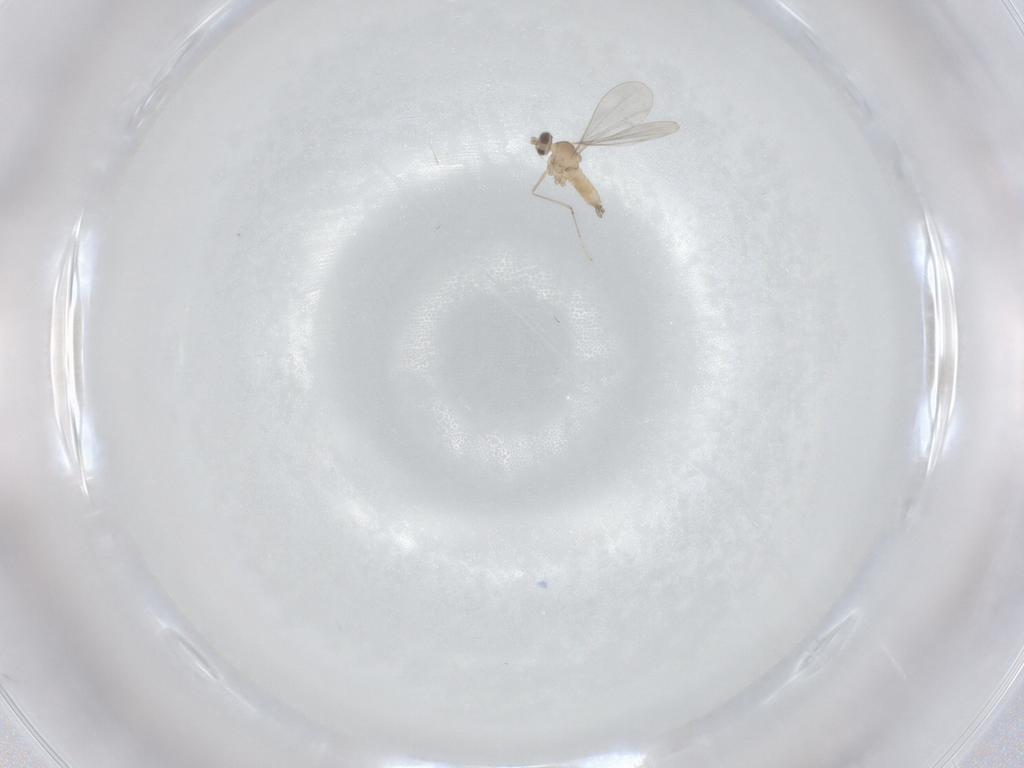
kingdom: Animalia
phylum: Arthropoda
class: Insecta
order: Diptera
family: Cecidomyiidae
